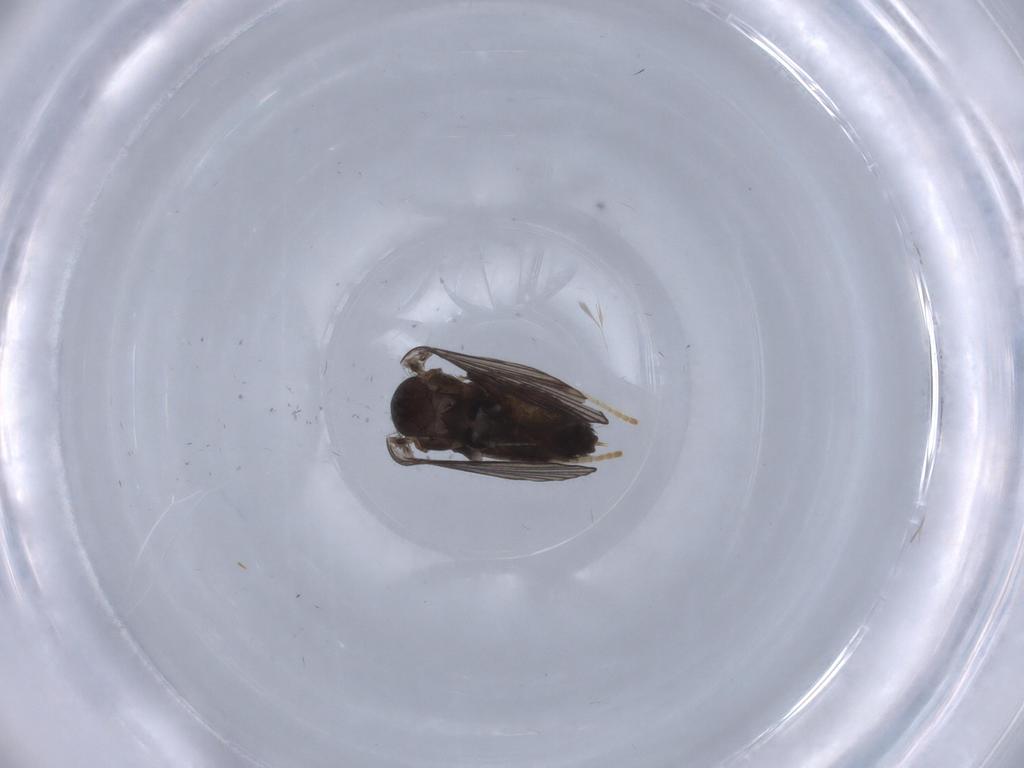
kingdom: Animalia
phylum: Arthropoda
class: Insecta
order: Diptera
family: Psychodidae
